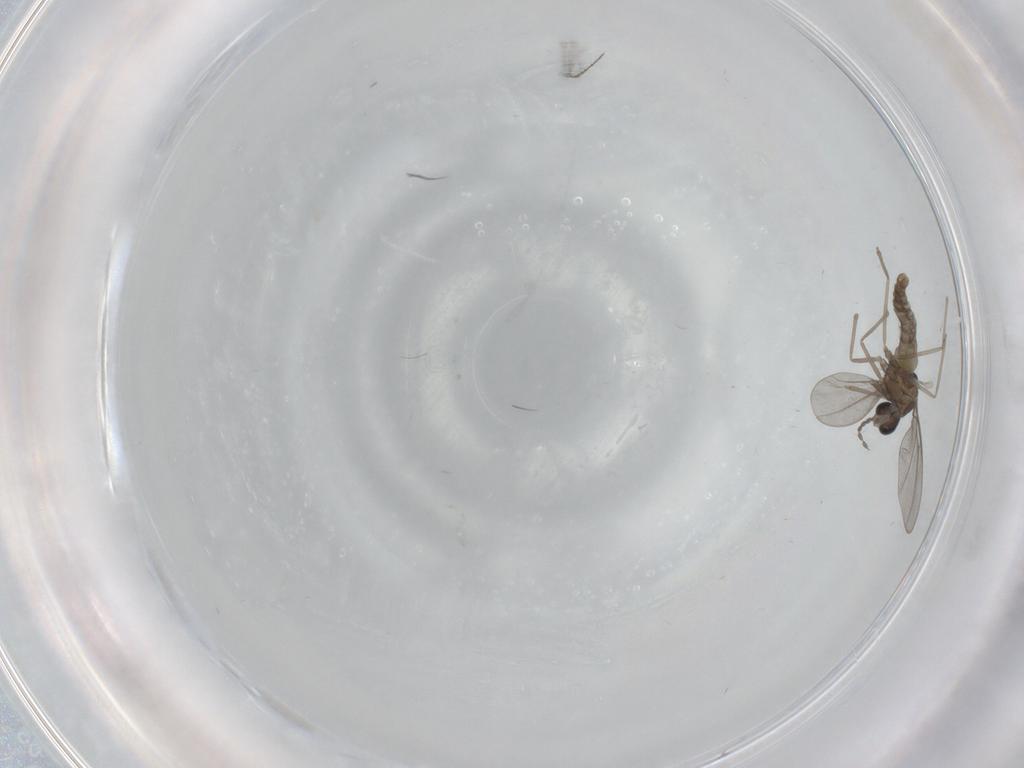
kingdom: Animalia
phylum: Arthropoda
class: Insecta
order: Diptera
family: Cecidomyiidae
